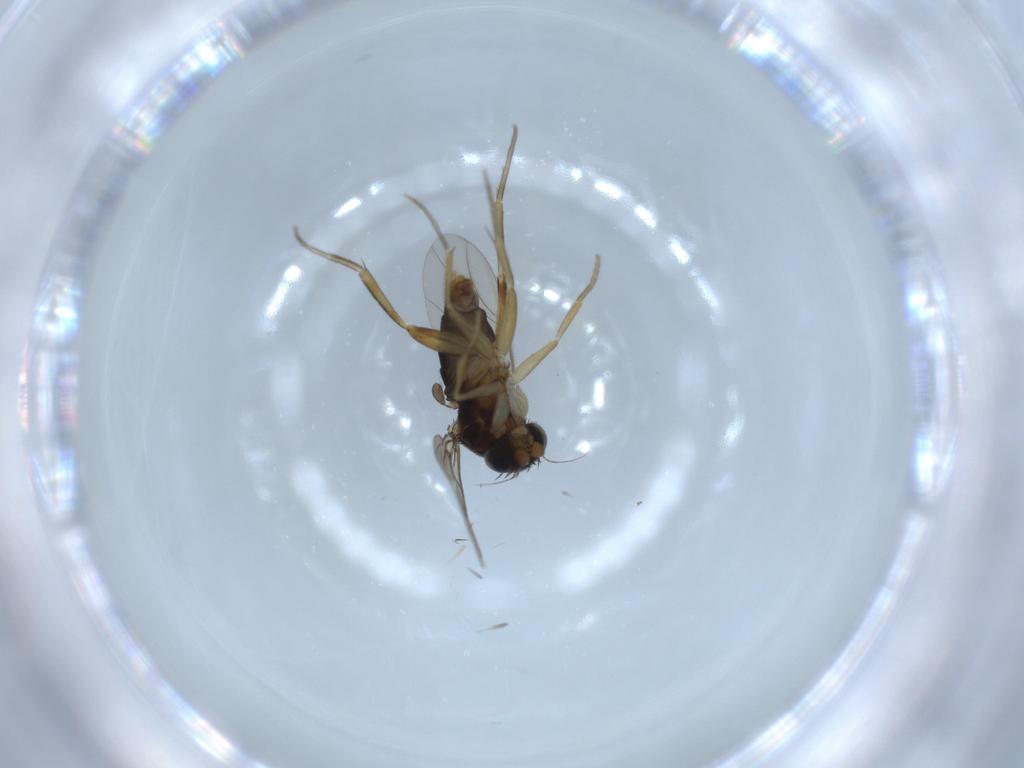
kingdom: Animalia
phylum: Arthropoda
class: Insecta
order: Diptera
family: Phoridae
